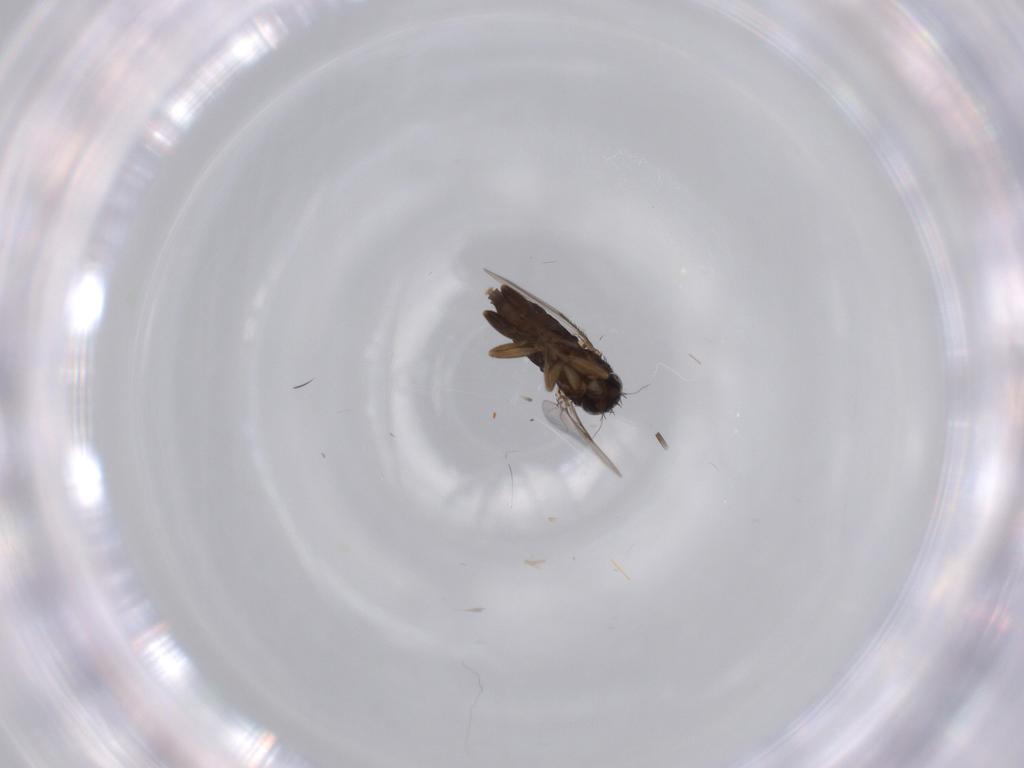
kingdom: Animalia
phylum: Arthropoda
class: Insecta
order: Diptera
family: Phoridae
